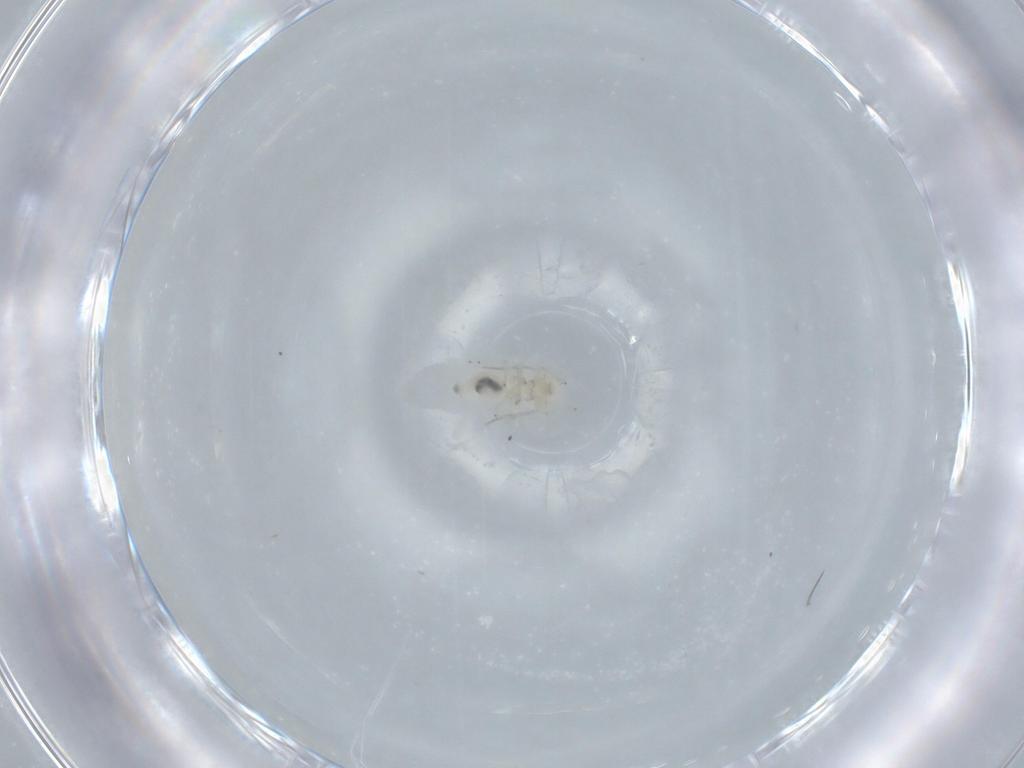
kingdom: Animalia
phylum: Arthropoda
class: Insecta
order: Psocodea
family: Caeciliusidae
